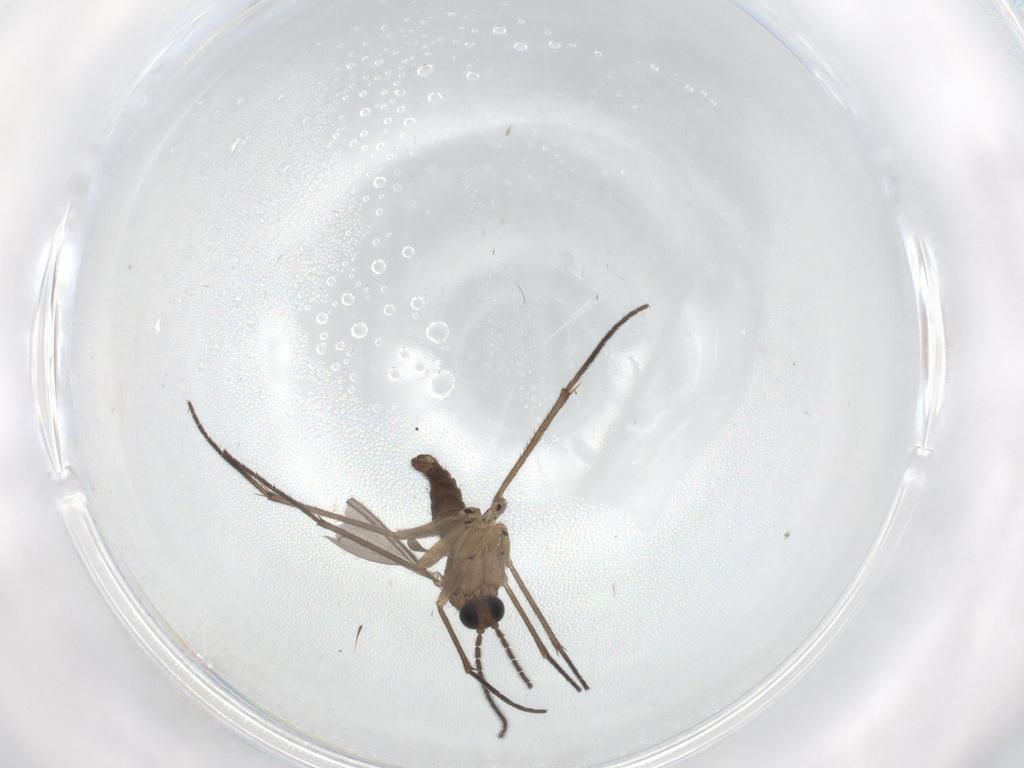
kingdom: Animalia
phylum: Arthropoda
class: Insecta
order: Diptera
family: Sciaridae
